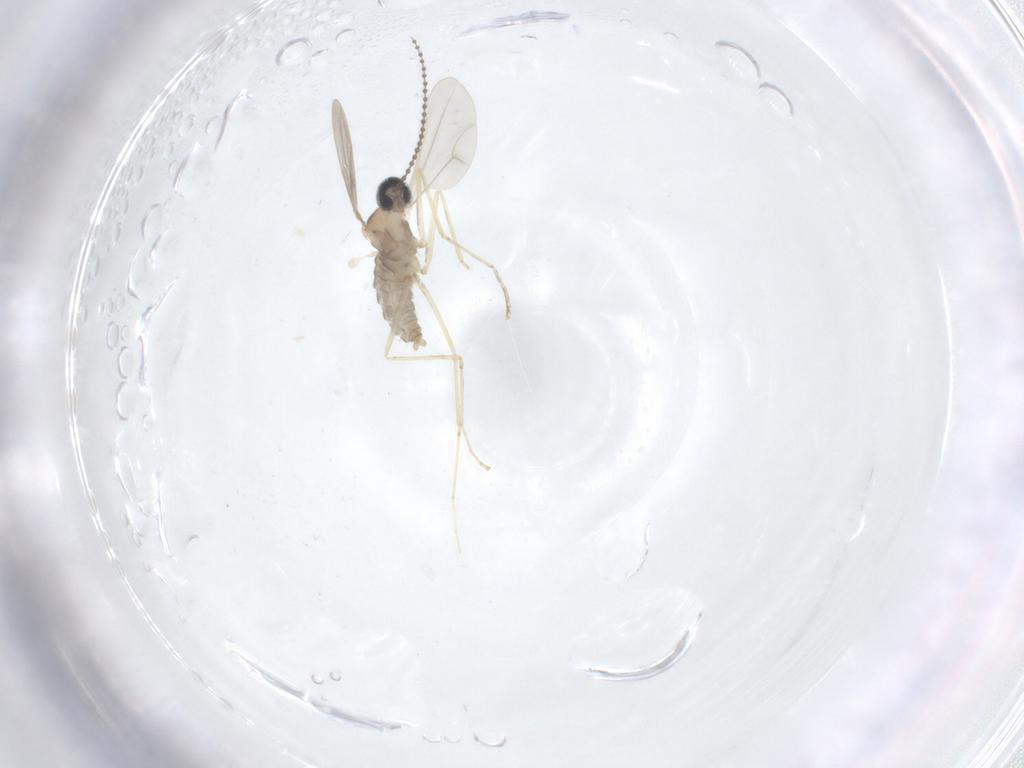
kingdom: Animalia
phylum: Arthropoda
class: Insecta
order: Diptera
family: Cecidomyiidae
